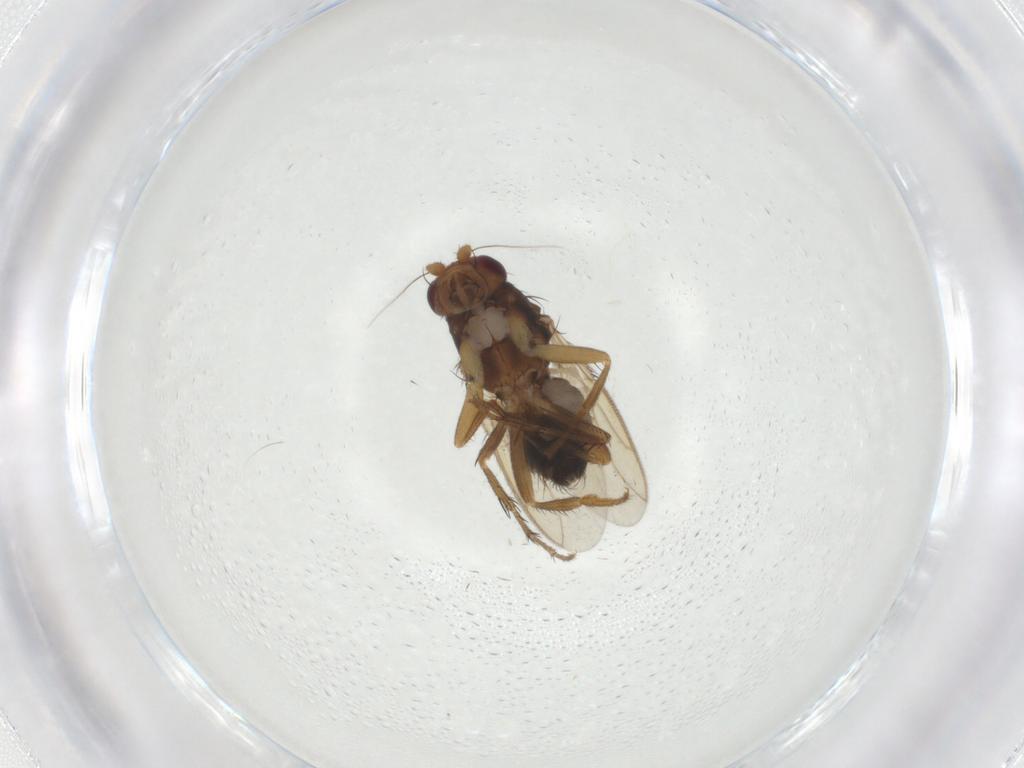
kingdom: Animalia
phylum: Arthropoda
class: Insecta
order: Diptera
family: Sphaeroceridae
